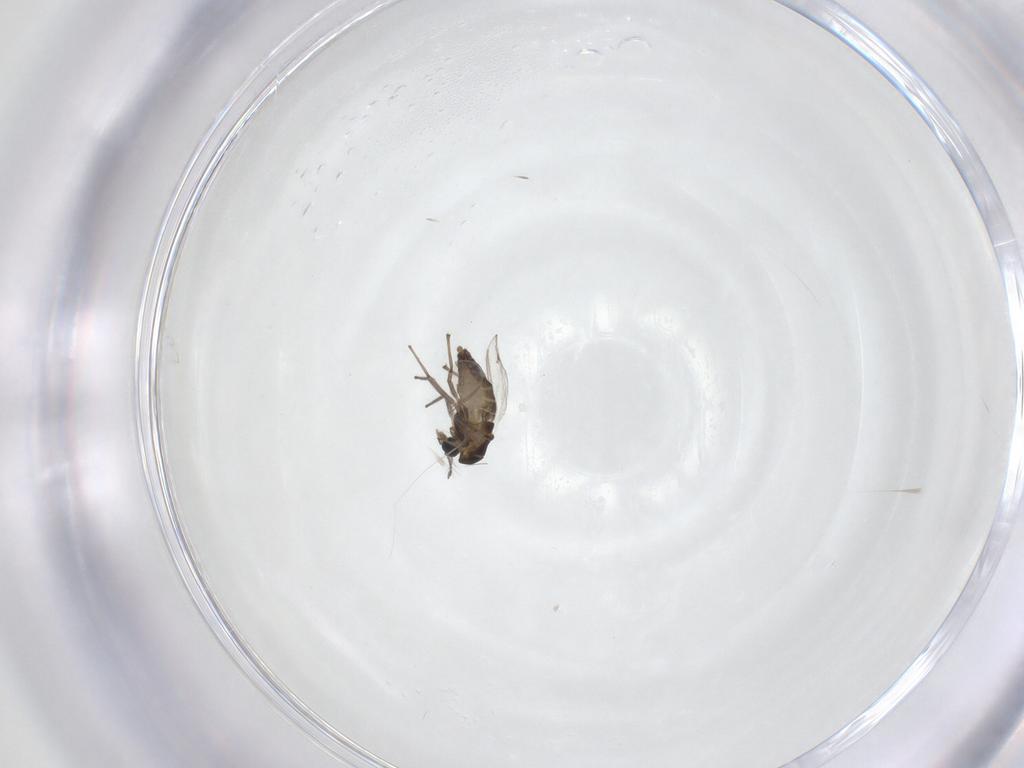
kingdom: Animalia
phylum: Arthropoda
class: Insecta
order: Diptera
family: Chironomidae
